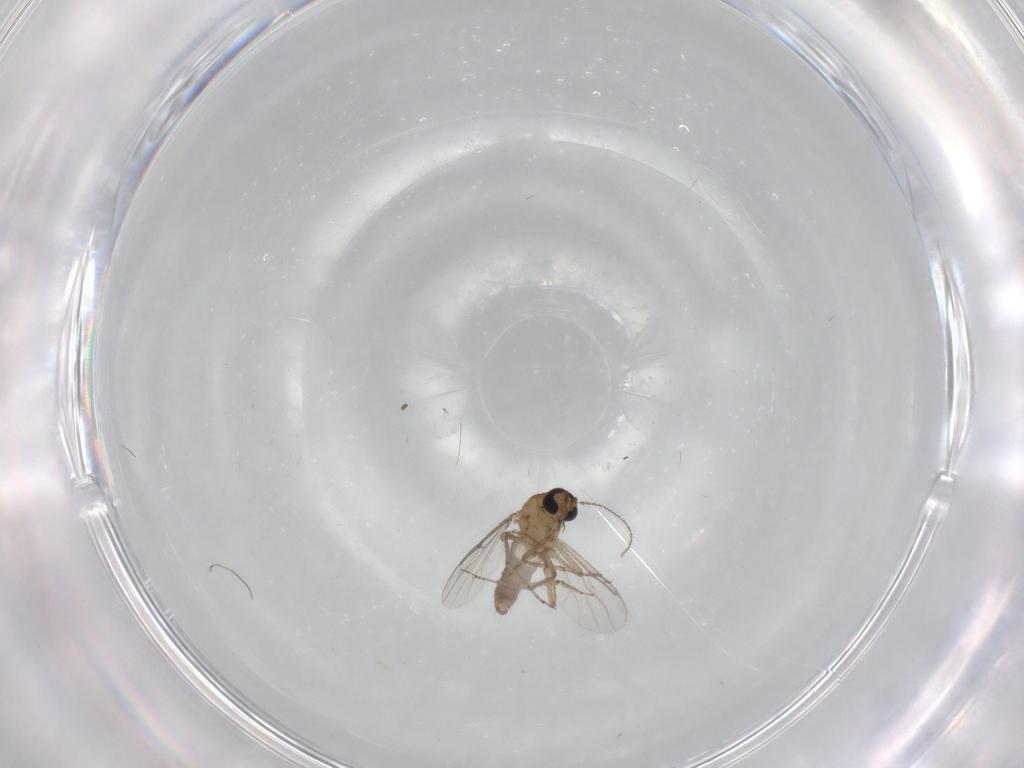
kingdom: Animalia
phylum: Arthropoda
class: Insecta
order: Diptera
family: Ceratopogonidae
